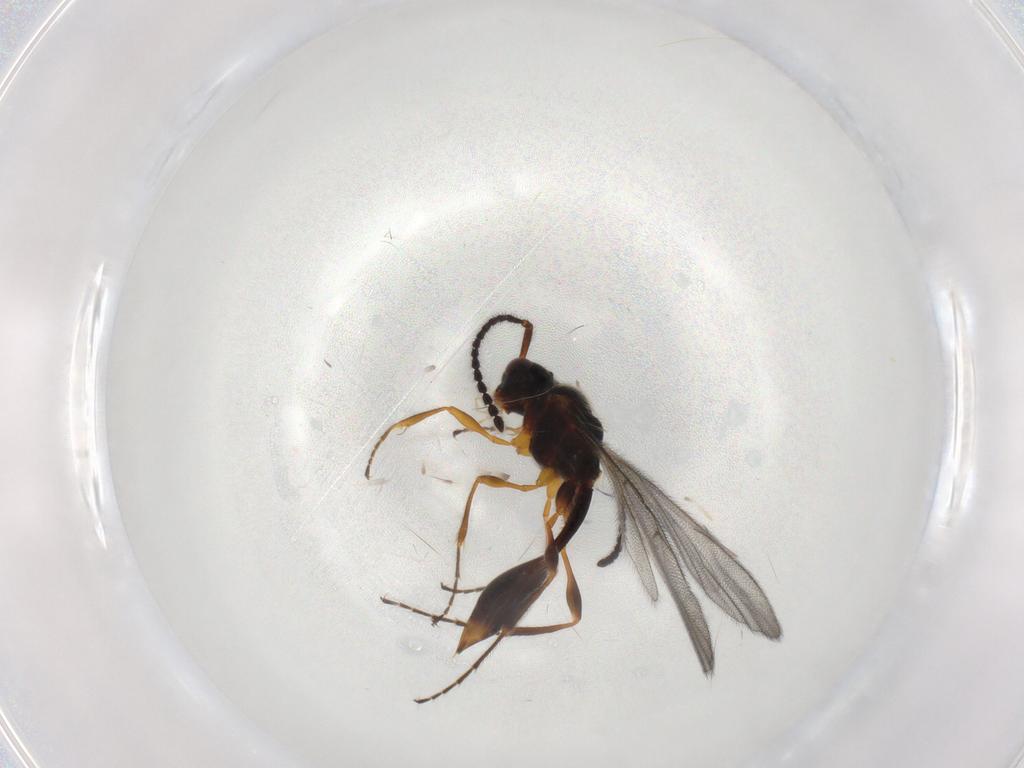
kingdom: Animalia
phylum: Arthropoda
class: Insecta
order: Hymenoptera
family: Diapriidae
